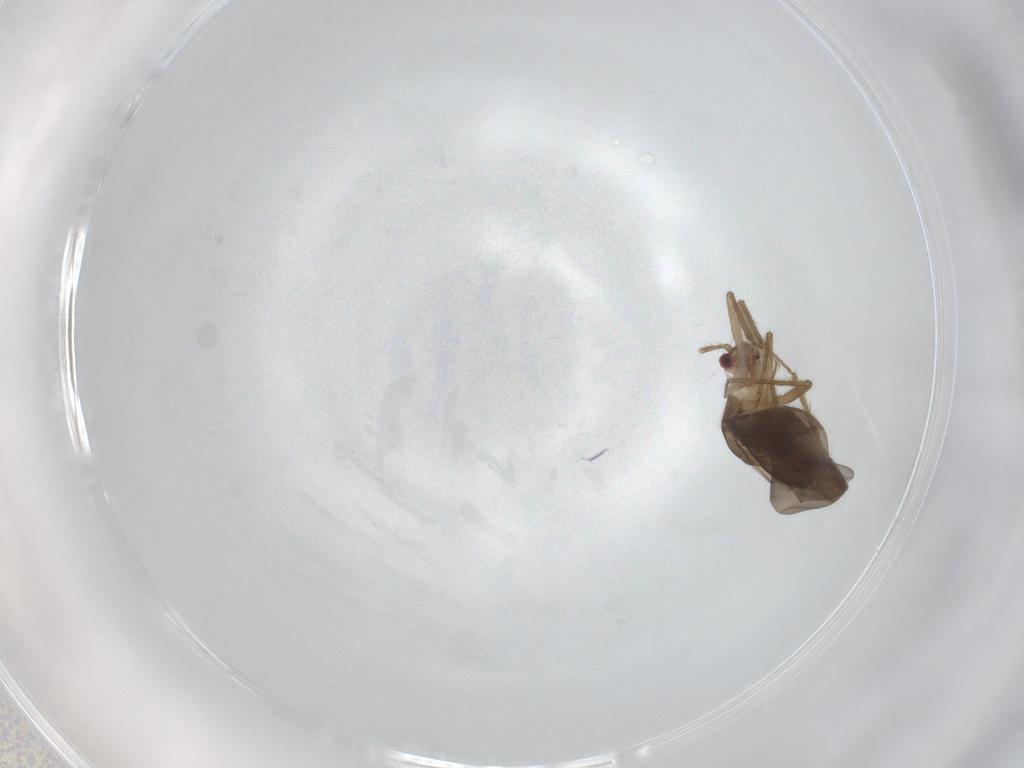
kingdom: Animalia
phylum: Arthropoda
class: Insecta
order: Hemiptera
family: Ceratocombidae
